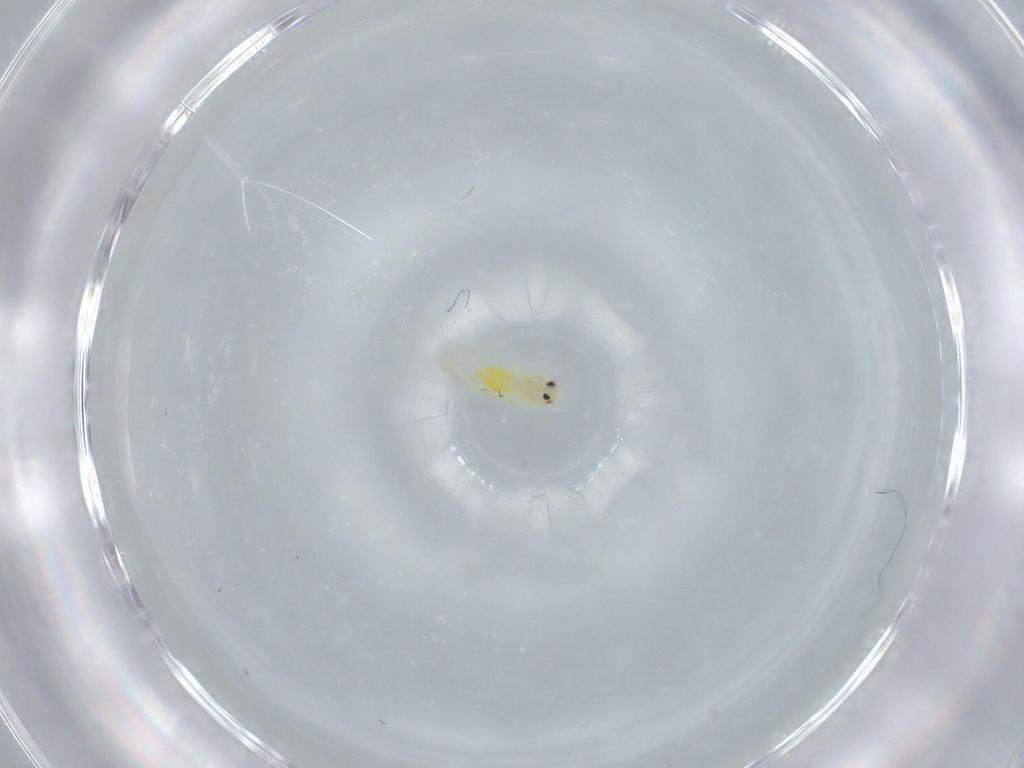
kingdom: Animalia
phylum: Arthropoda
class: Insecta
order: Hemiptera
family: Aleyrodidae
